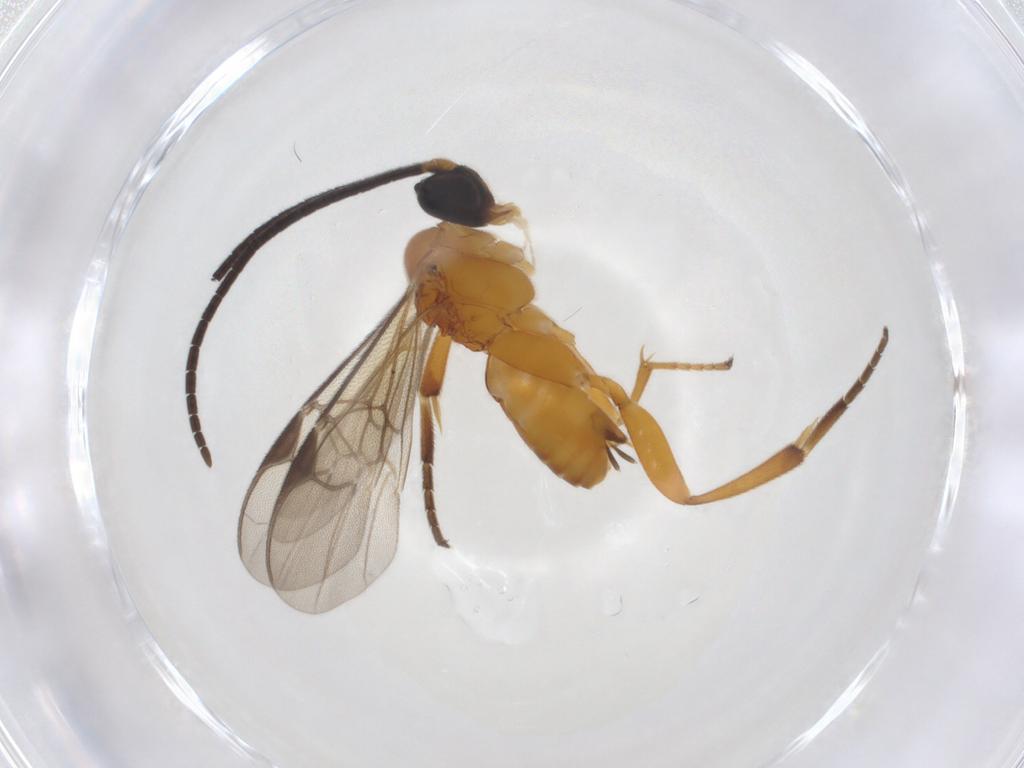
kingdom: Animalia
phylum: Arthropoda
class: Insecta
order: Hymenoptera
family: Braconidae
